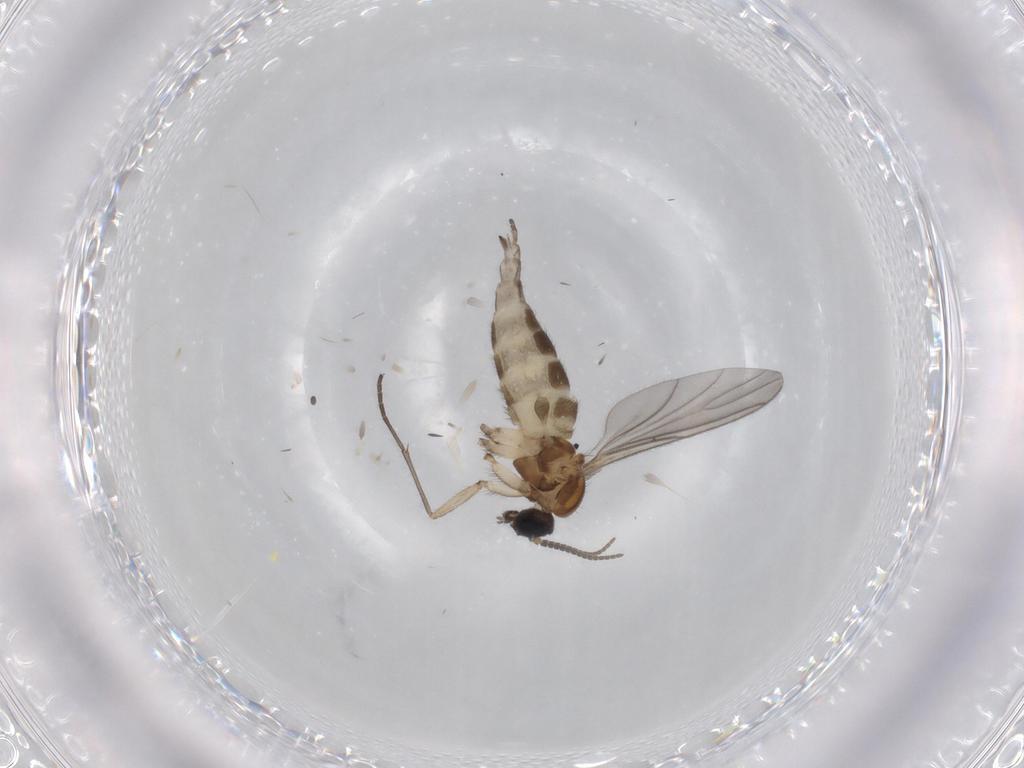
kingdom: Animalia
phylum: Arthropoda
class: Insecta
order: Diptera
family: Sciaridae
